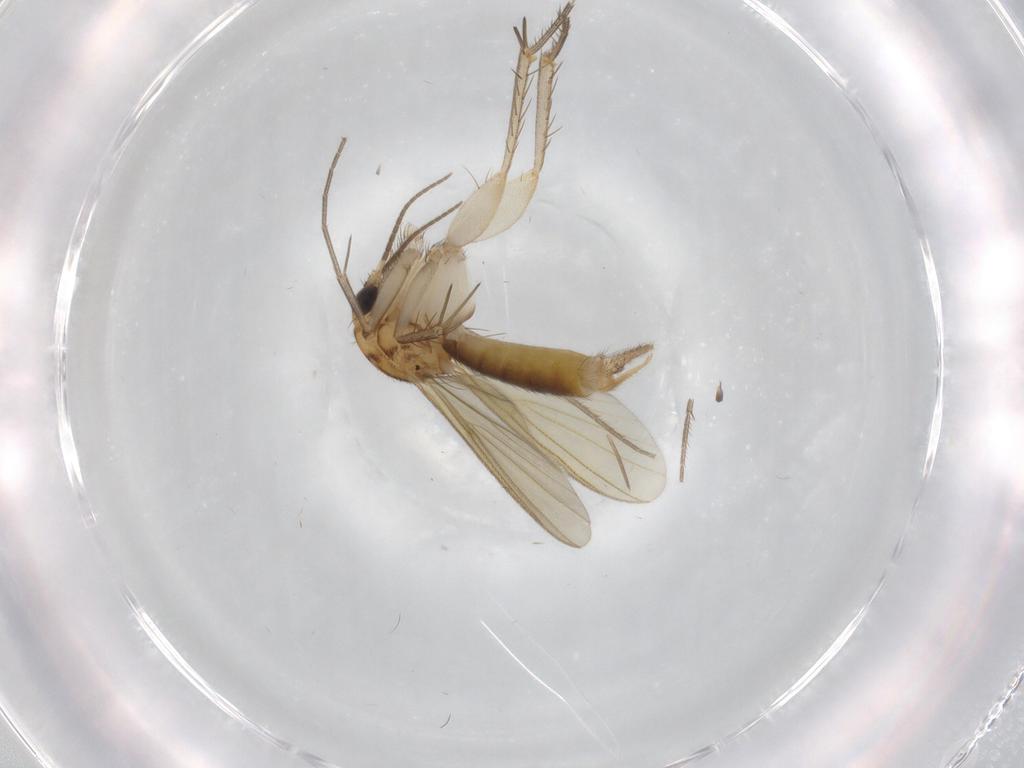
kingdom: Animalia
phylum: Arthropoda
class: Insecta
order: Diptera
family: Mycetophilidae
